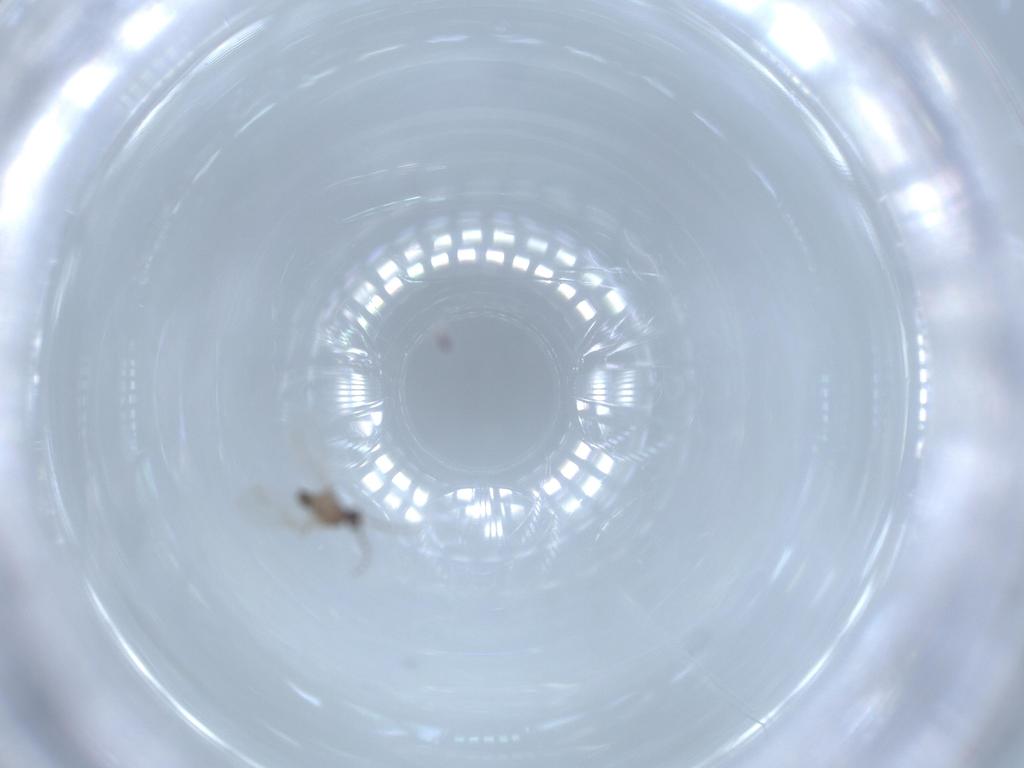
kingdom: Animalia
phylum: Arthropoda
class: Insecta
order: Diptera
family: Cecidomyiidae
